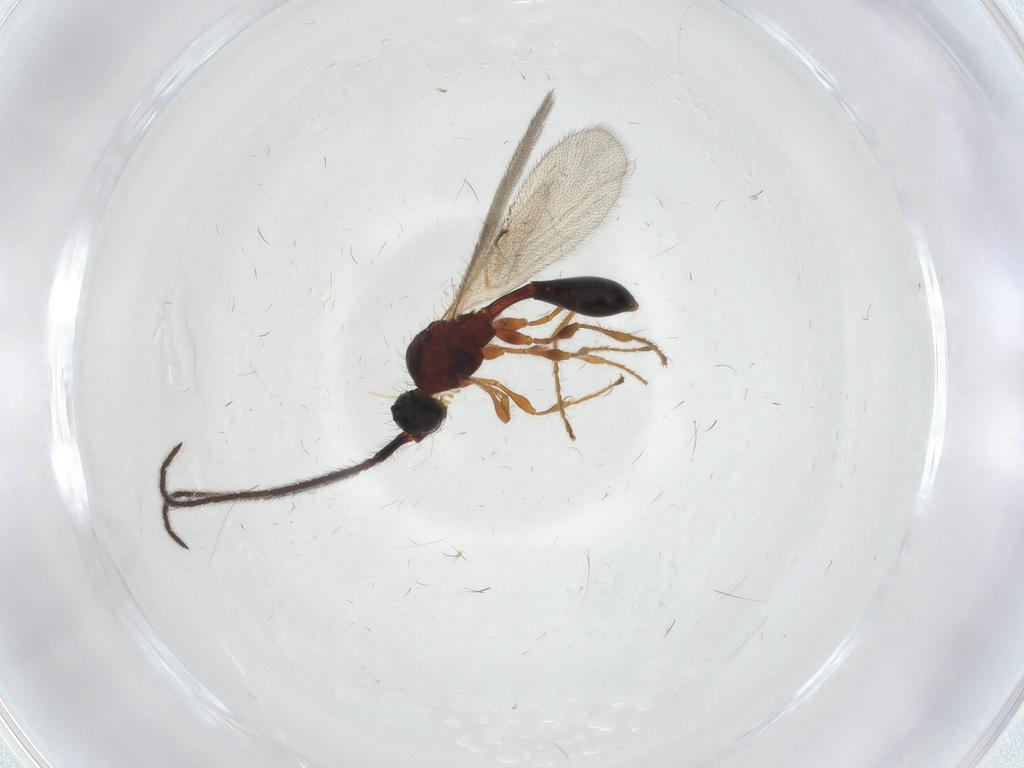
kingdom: Animalia
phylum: Arthropoda
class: Insecta
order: Hymenoptera
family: Diapriidae
